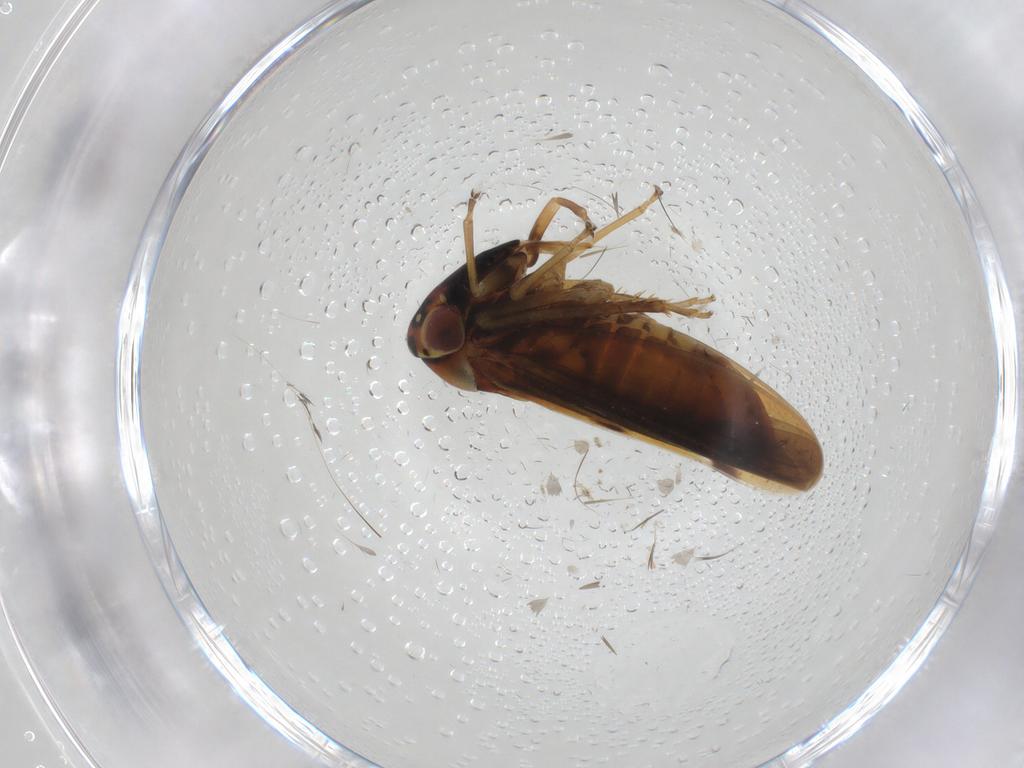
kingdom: Animalia
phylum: Arthropoda
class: Insecta
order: Hemiptera
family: Cicadellidae
